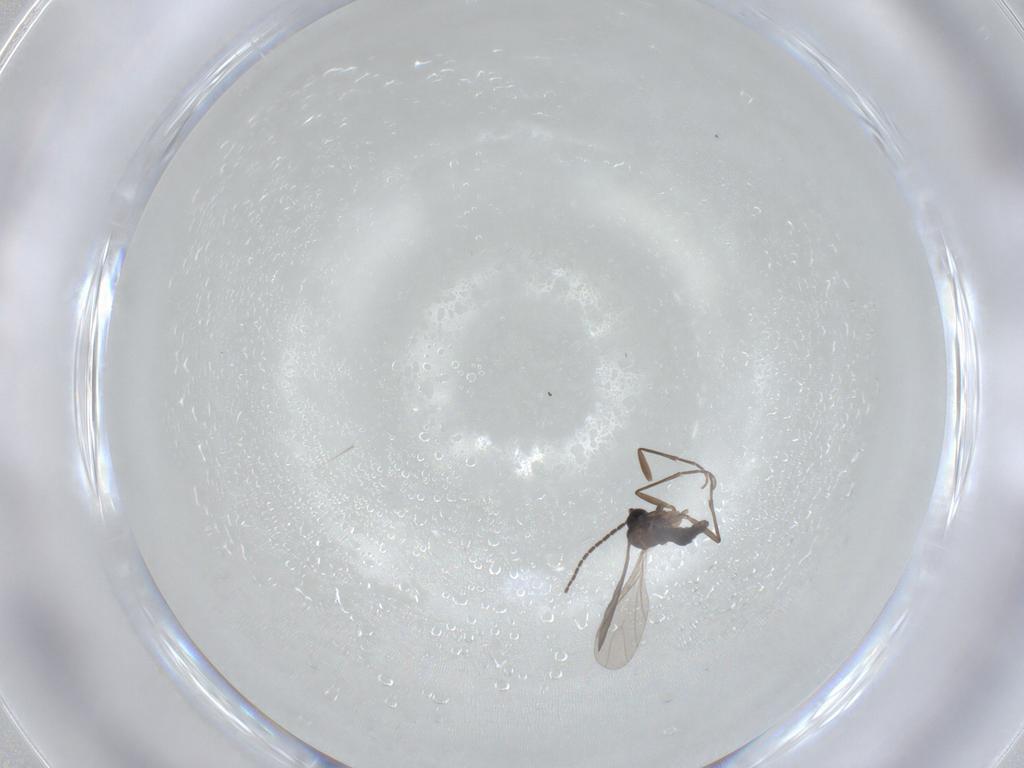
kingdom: Animalia
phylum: Arthropoda
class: Insecta
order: Diptera
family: Sciaridae
